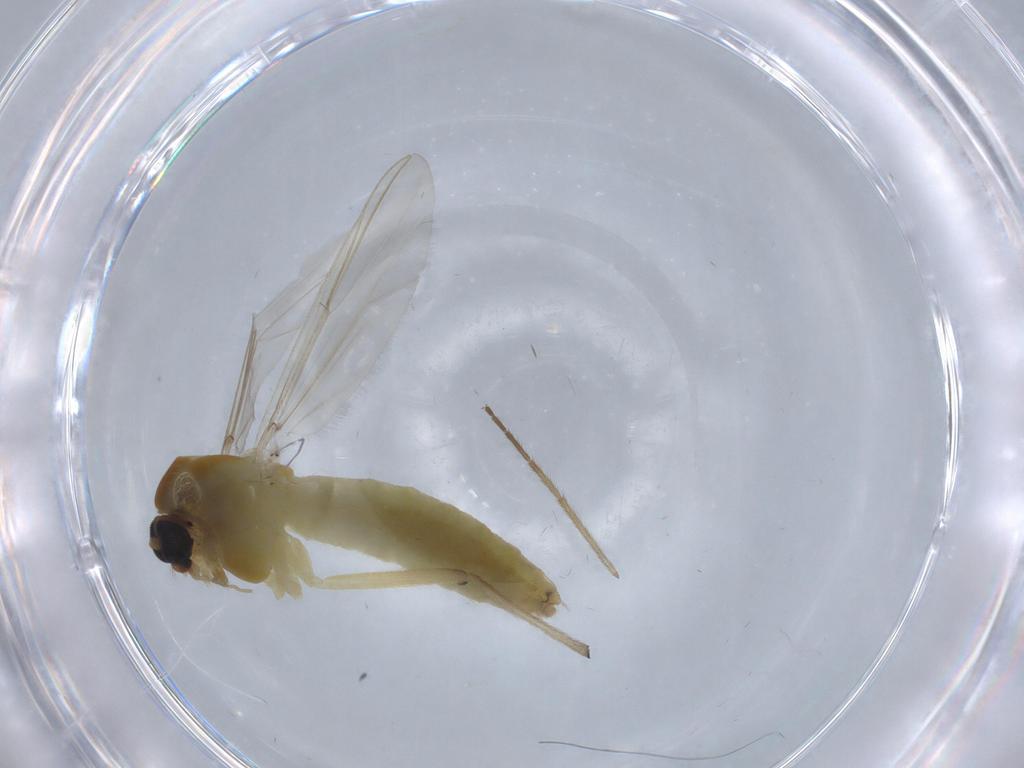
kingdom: Animalia
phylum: Arthropoda
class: Insecta
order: Diptera
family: Chironomidae
